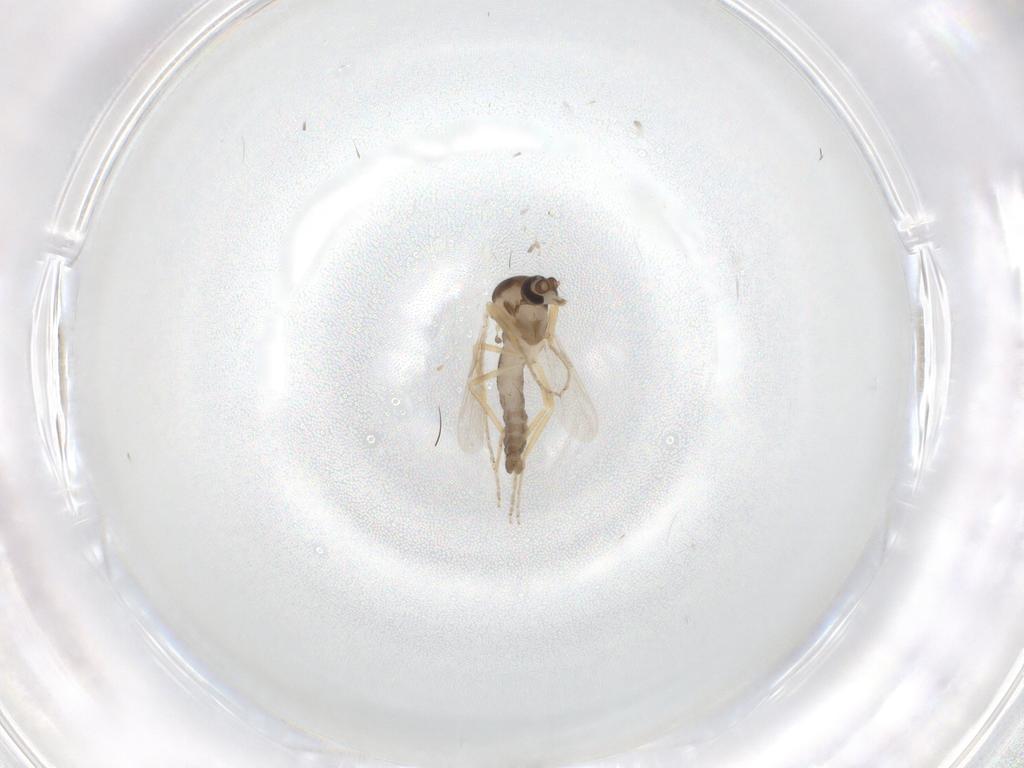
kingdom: Animalia
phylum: Arthropoda
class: Insecta
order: Diptera
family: Ceratopogonidae
